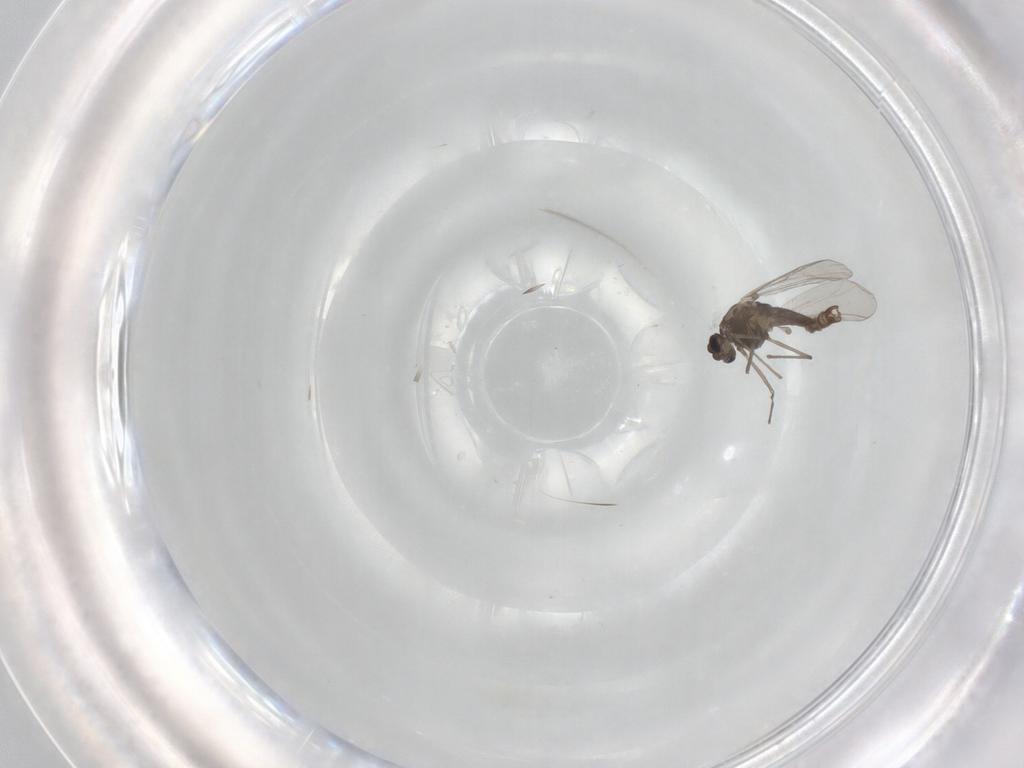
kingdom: Animalia
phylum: Arthropoda
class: Insecta
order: Diptera
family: Chironomidae
